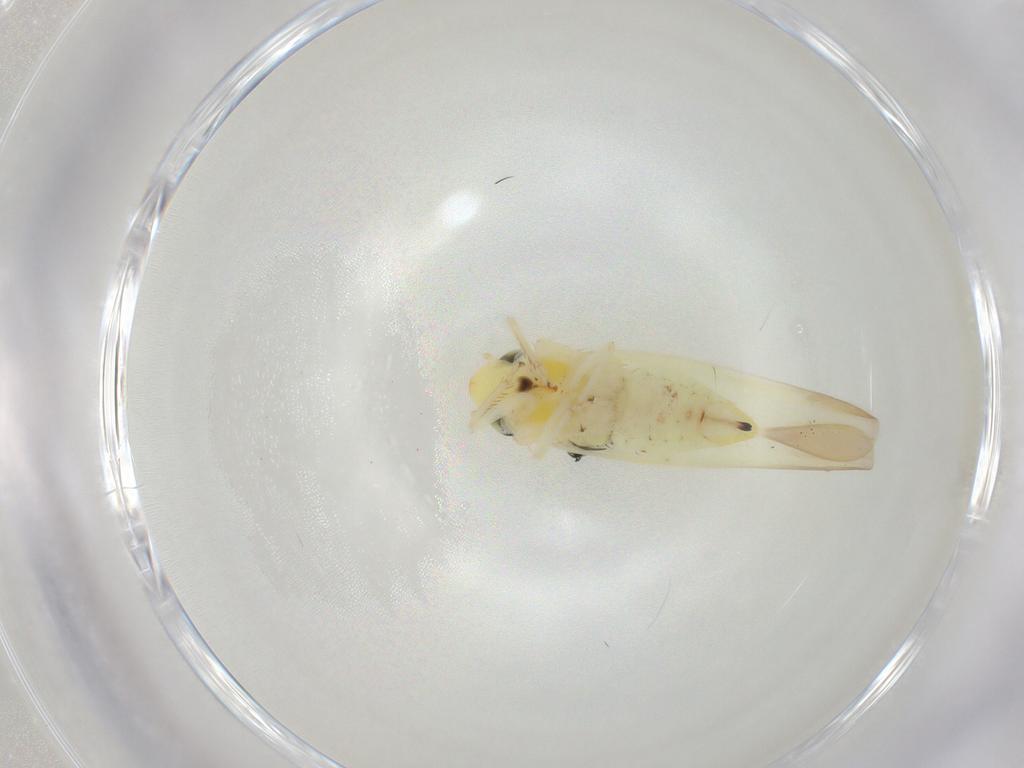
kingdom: Animalia
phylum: Arthropoda
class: Insecta
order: Hemiptera
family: Cicadellidae
